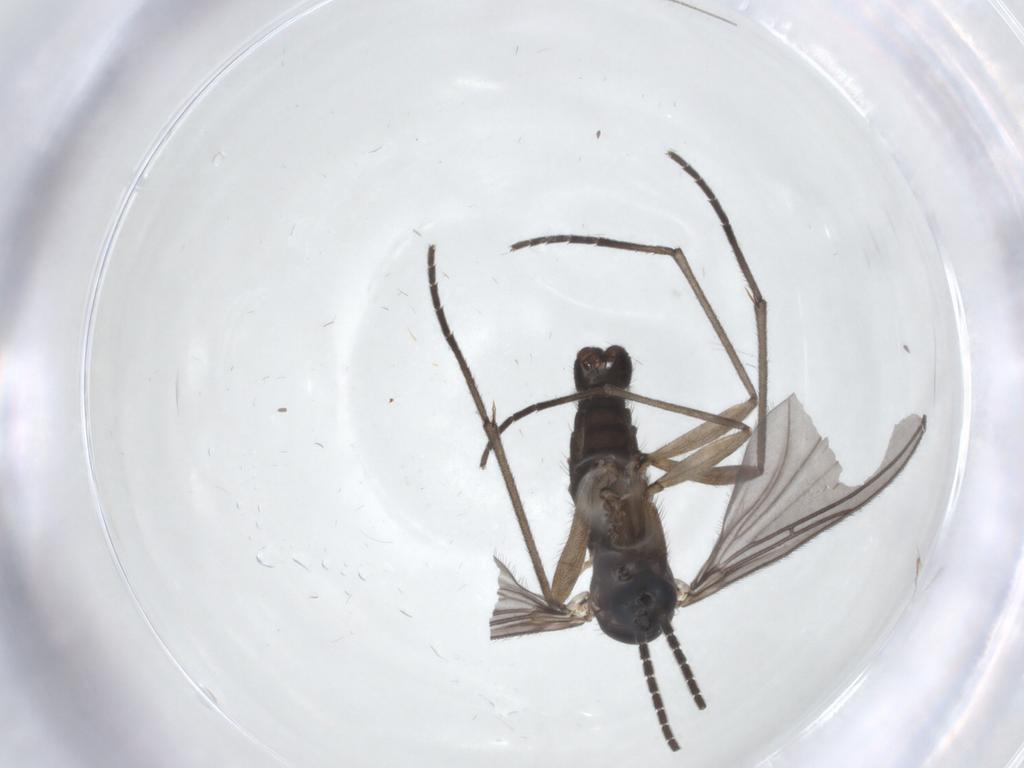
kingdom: Animalia
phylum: Arthropoda
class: Insecta
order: Diptera
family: Sciaridae
